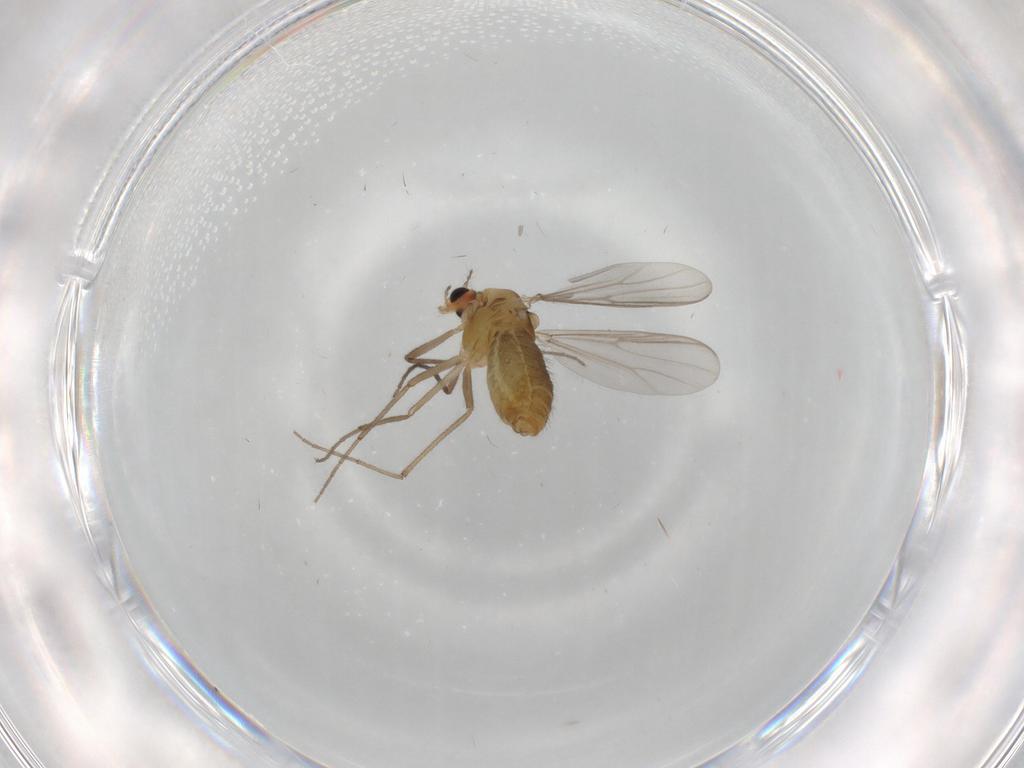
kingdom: Animalia
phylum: Arthropoda
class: Insecta
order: Diptera
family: Chironomidae
